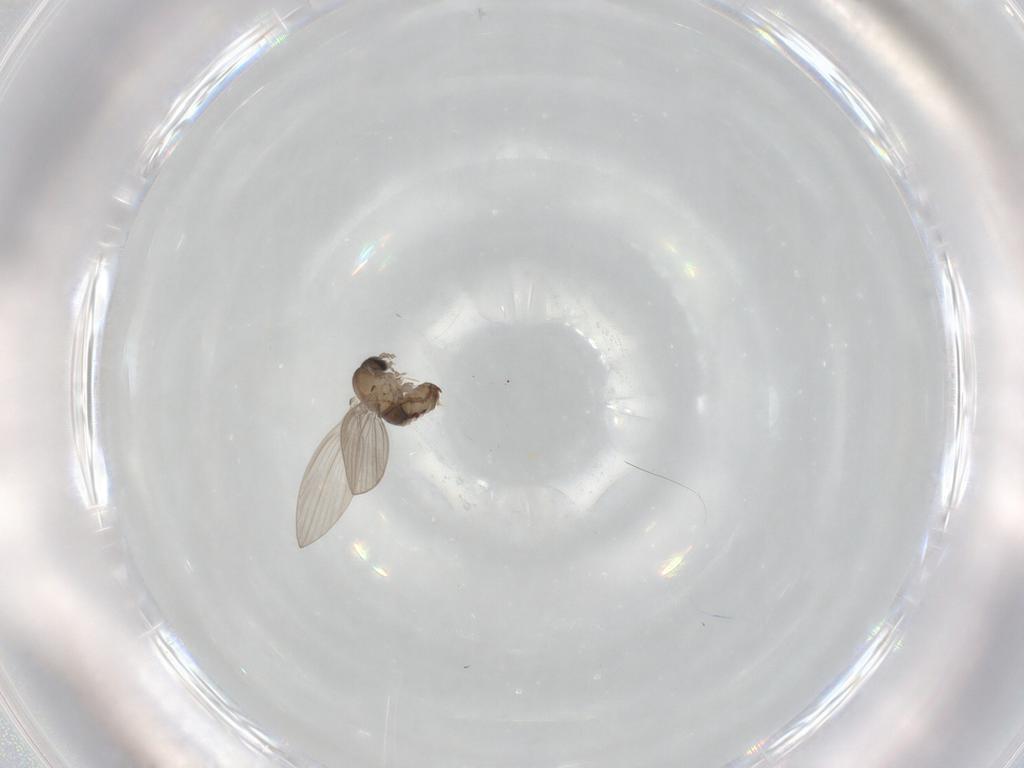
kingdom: Animalia
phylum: Arthropoda
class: Insecta
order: Diptera
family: Psychodidae
